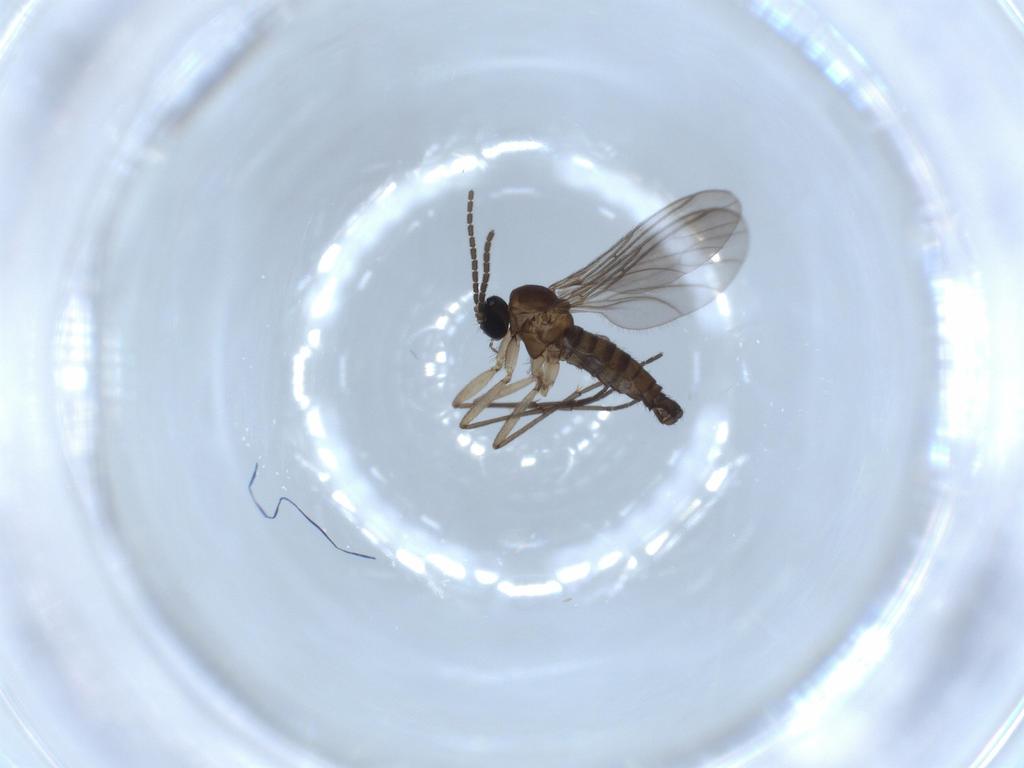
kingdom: Animalia
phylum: Arthropoda
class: Insecta
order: Diptera
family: Sciaridae
